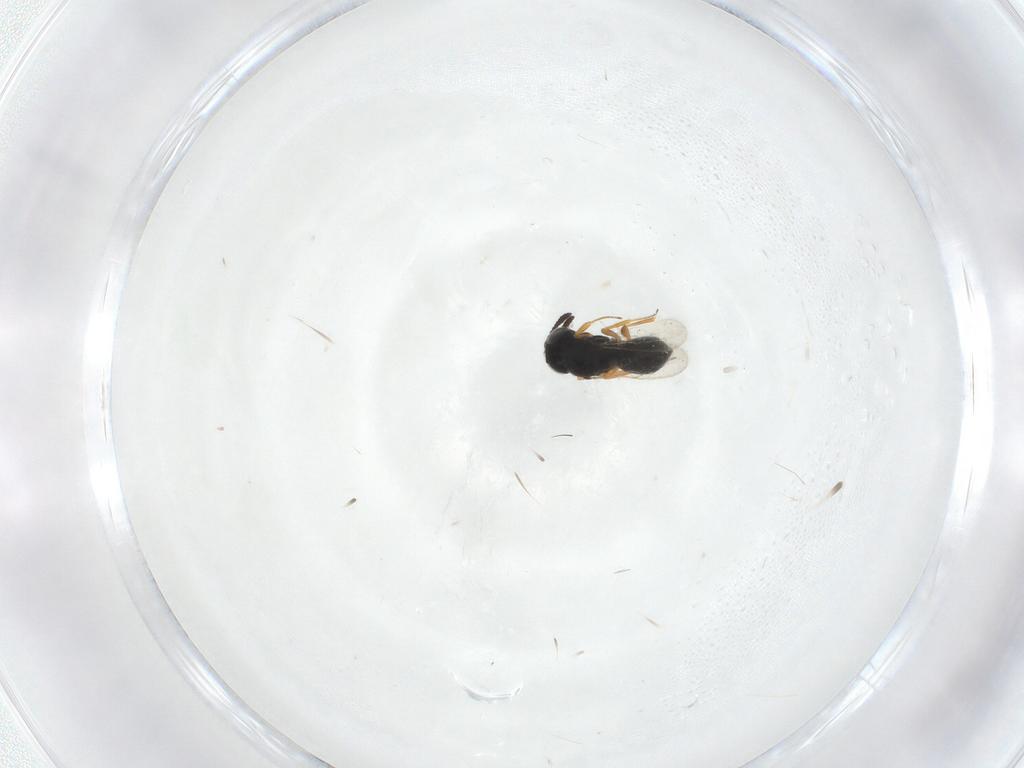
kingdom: Animalia
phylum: Arthropoda
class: Insecta
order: Hymenoptera
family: Scelionidae
